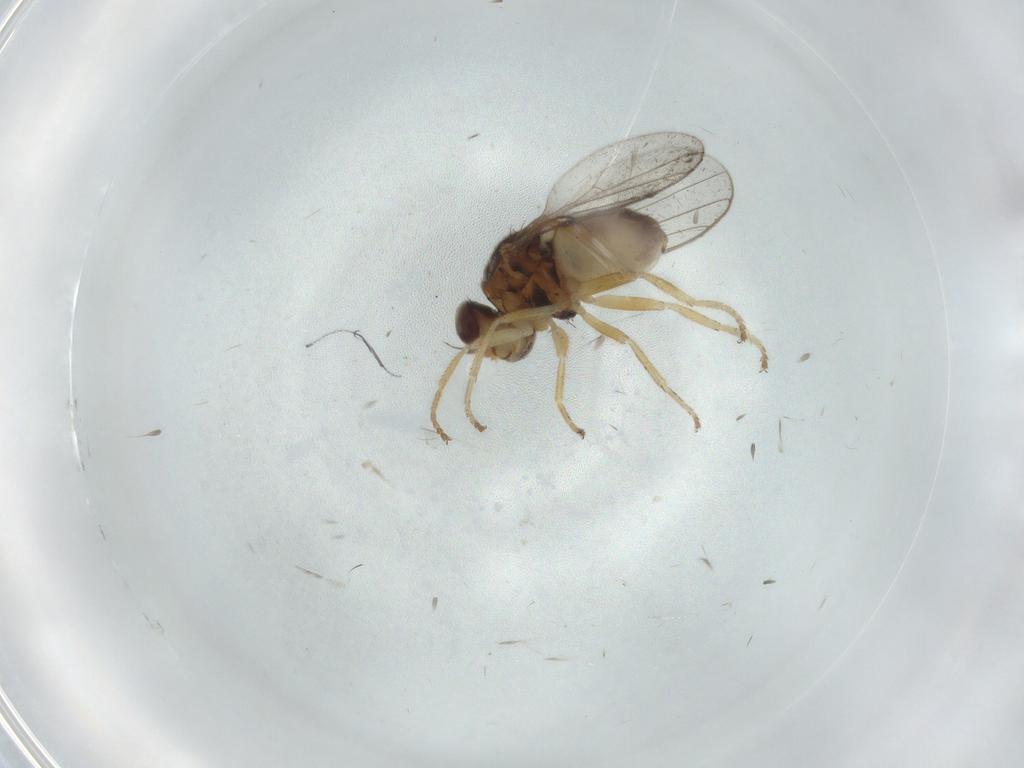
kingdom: Animalia
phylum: Arthropoda
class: Insecta
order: Diptera
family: Chloropidae
